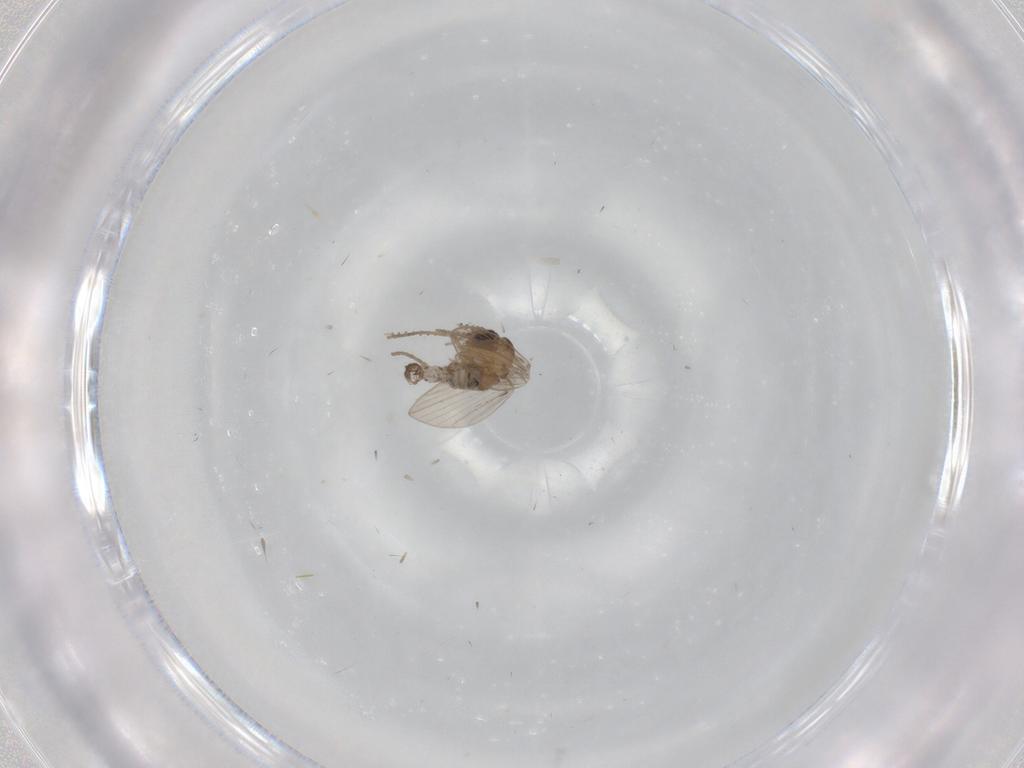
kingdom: Animalia
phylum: Arthropoda
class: Insecta
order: Diptera
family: Psychodidae
